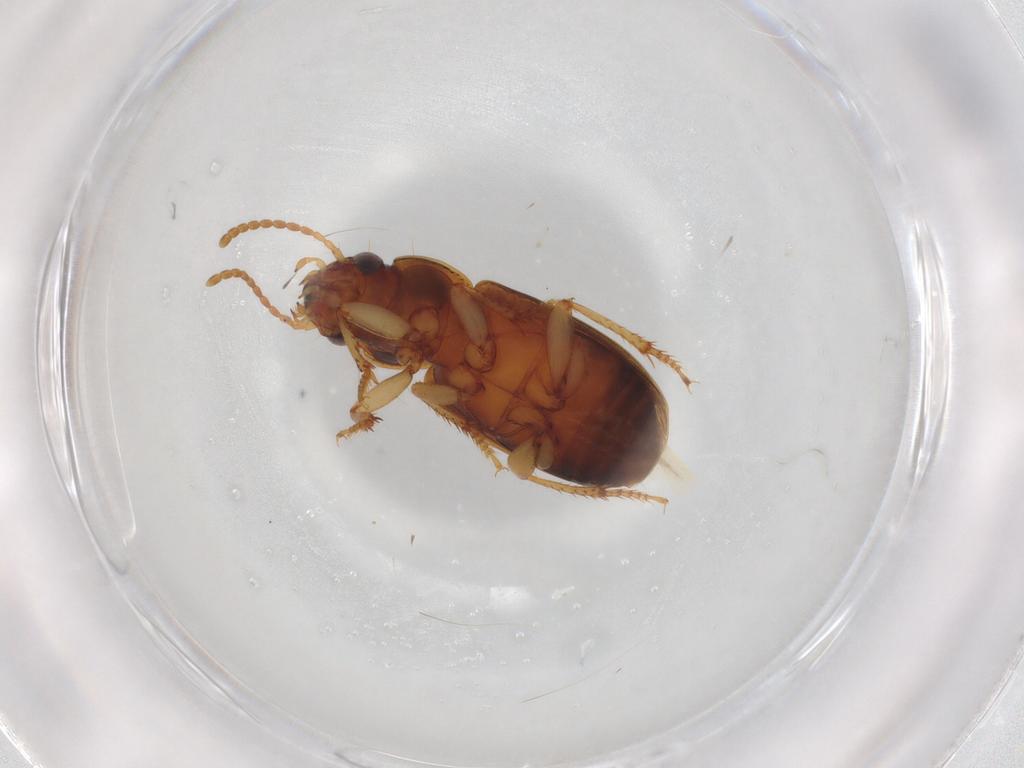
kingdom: Animalia
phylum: Arthropoda
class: Insecta
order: Coleoptera
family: Carabidae
